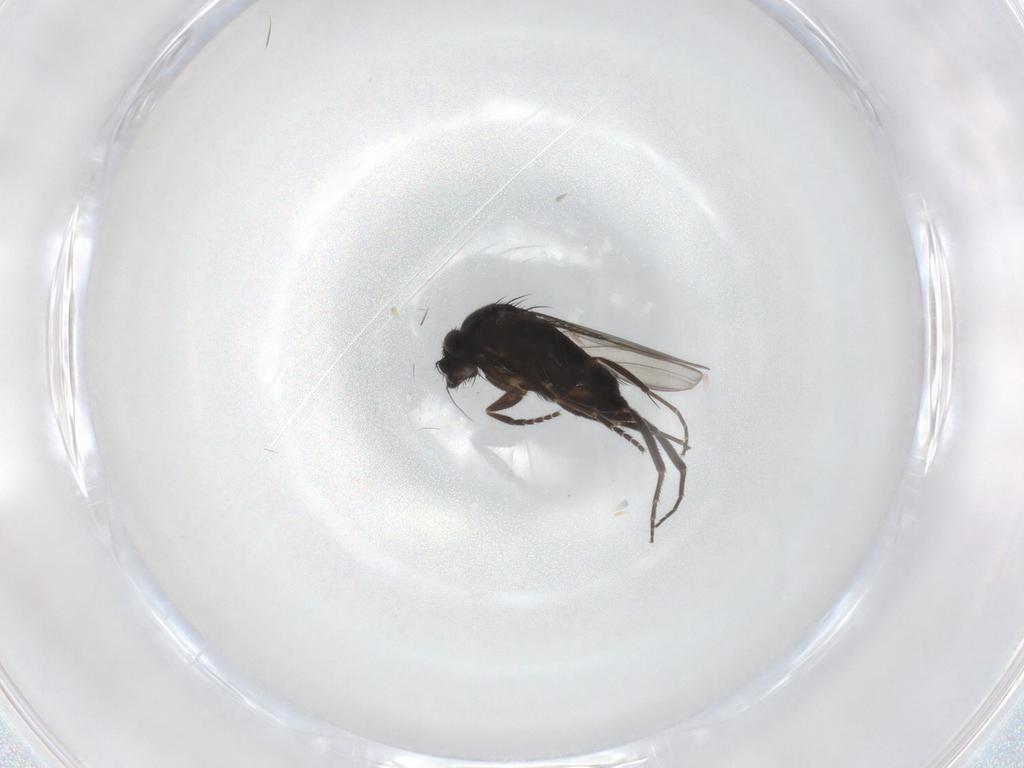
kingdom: Animalia
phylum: Arthropoda
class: Insecta
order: Diptera
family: Phoridae
